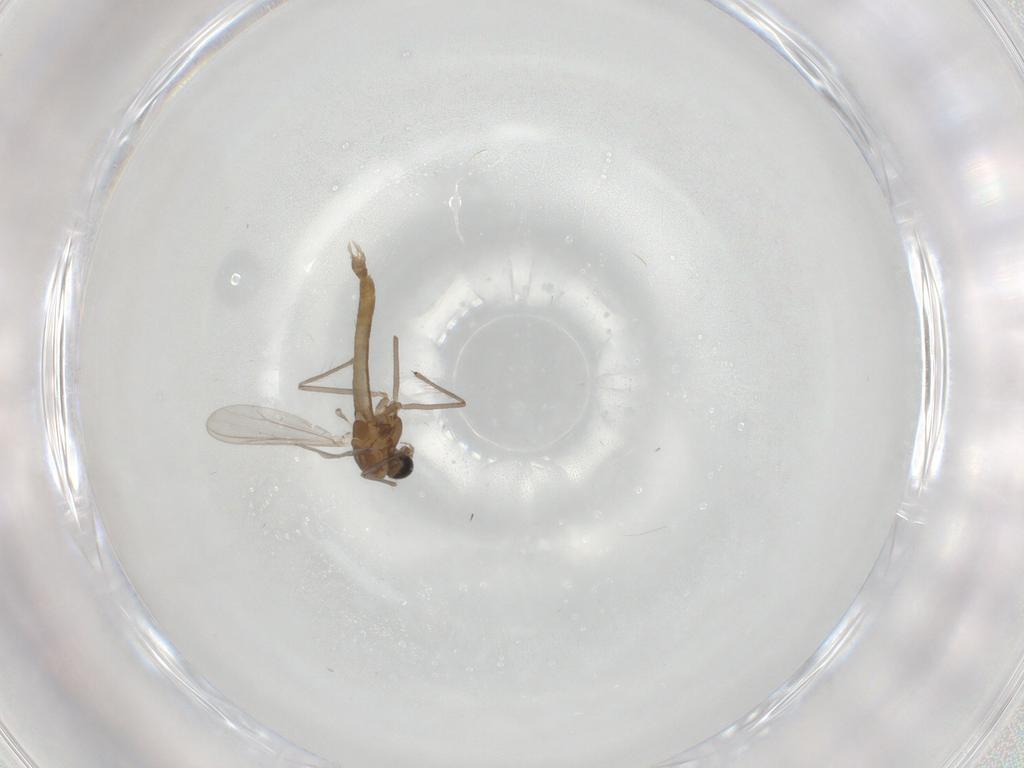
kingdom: Animalia
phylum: Arthropoda
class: Insecta
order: Diptera
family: Chironomidae
